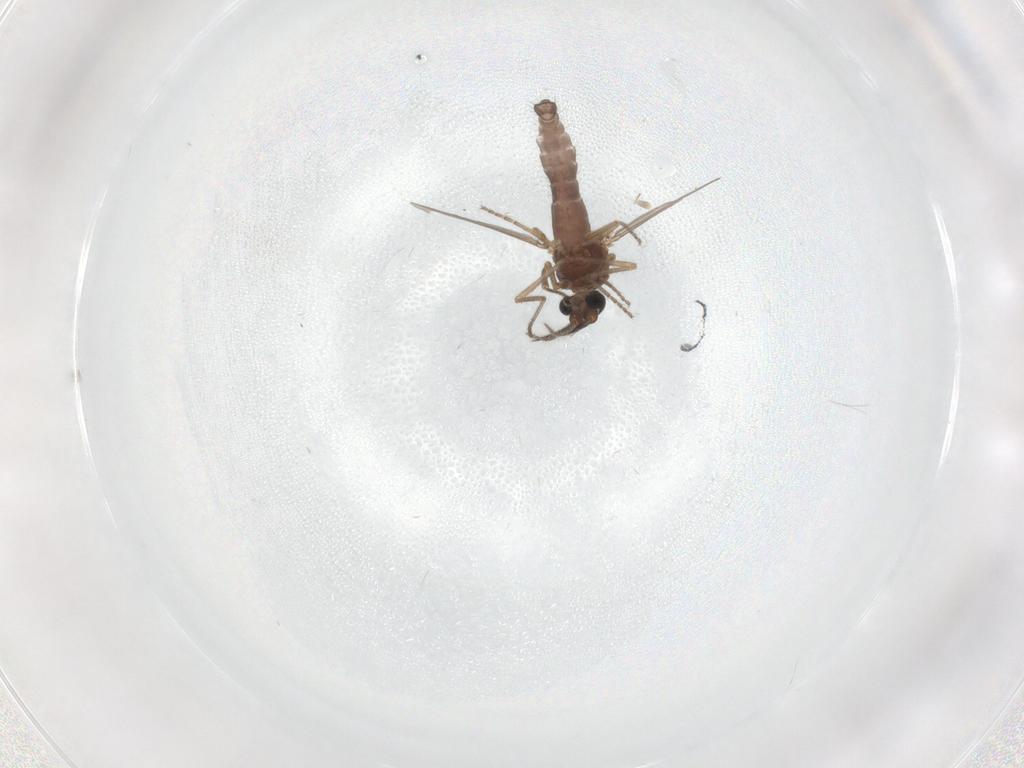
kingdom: Animalia
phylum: Arthropoda
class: Insecta
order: Diptera
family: Ceratopogonidae
